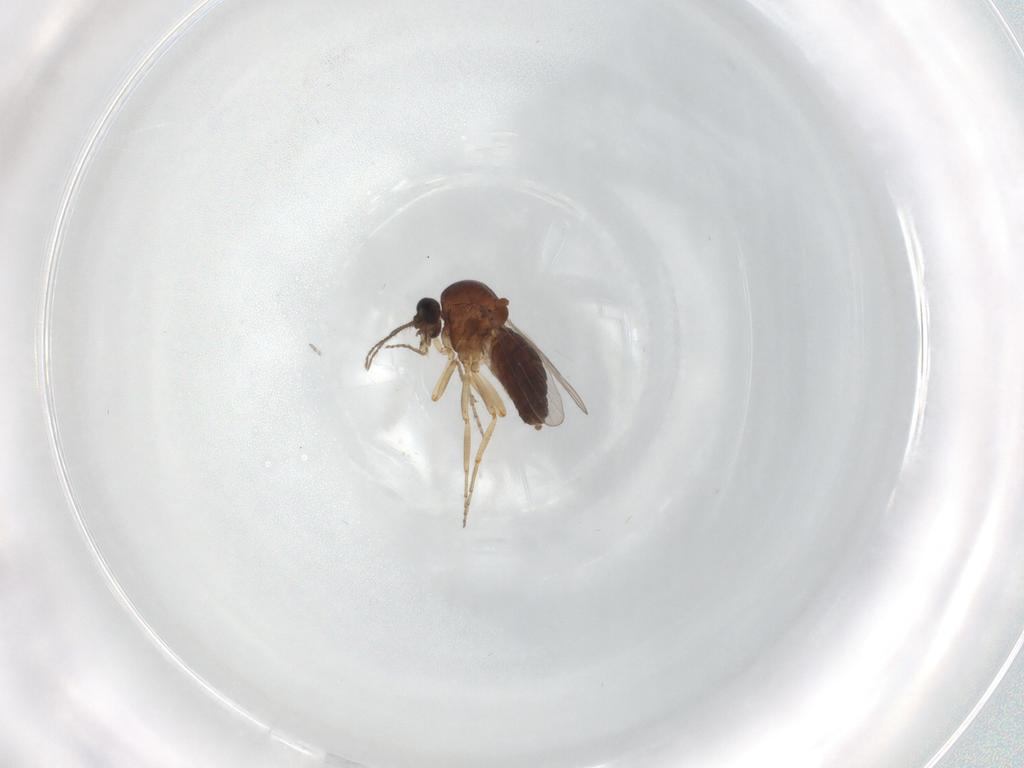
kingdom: Animalia
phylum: Arthropoda
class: Insecta
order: Diptera
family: Ceratopogonidae
